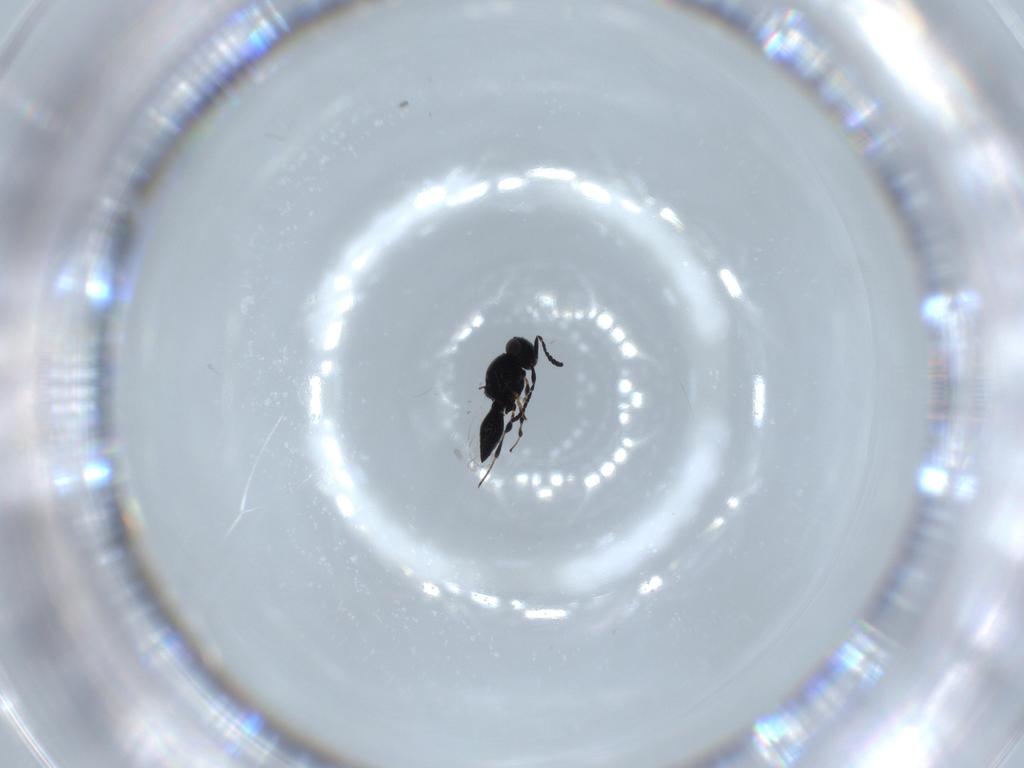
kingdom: Animalia
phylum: Arthropoda
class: Insecta
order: Hymenoptera
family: Platygastridae
